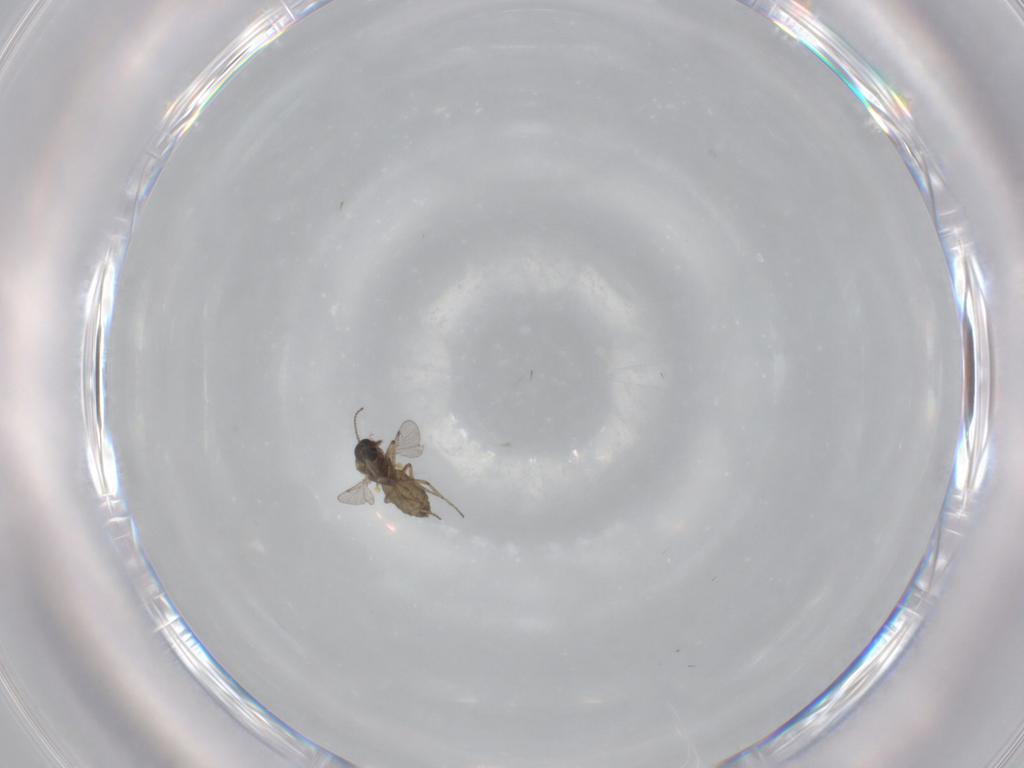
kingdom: Animalia
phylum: Arthropoda
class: Insecta
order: Diptera
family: Ceratopogonidae
